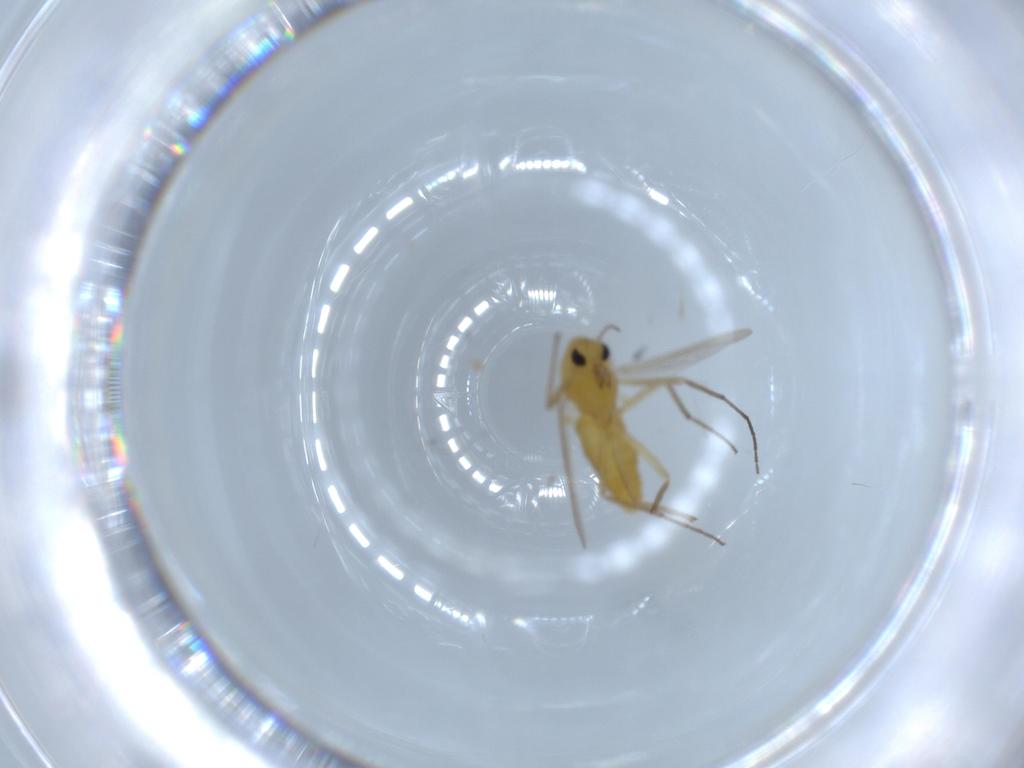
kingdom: Animalia
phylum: Arthropoda
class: Insecta
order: Diptera
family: Chironomidae
